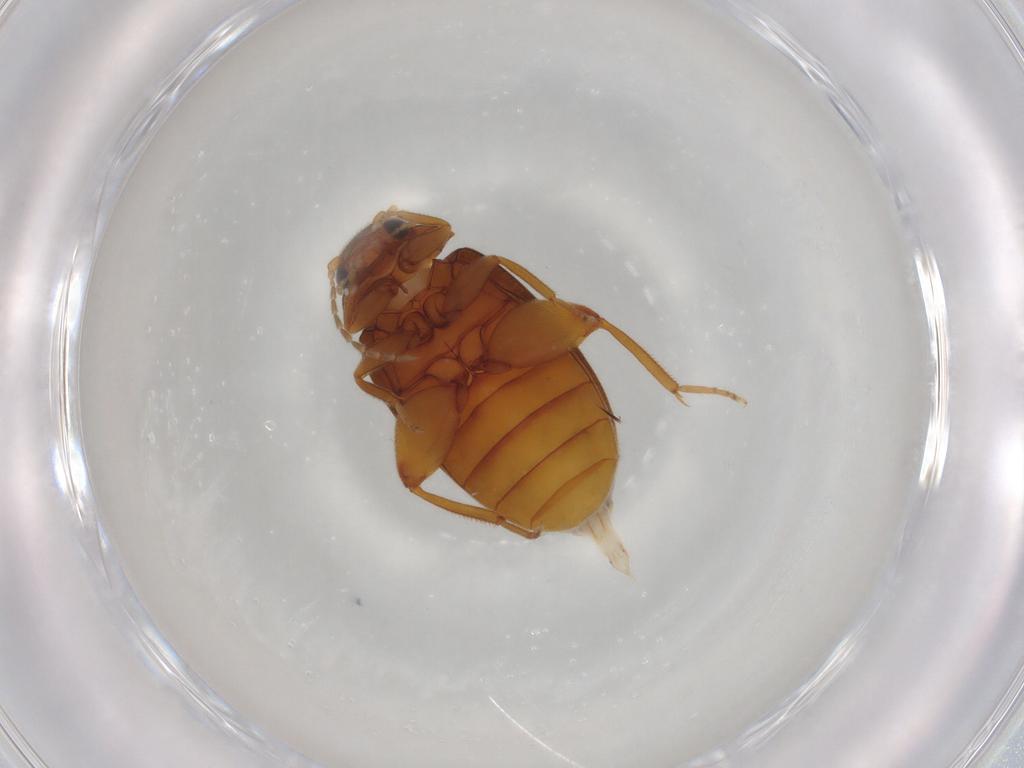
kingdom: Animalia
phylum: Arthropoda
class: Insecta
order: Coleoptera
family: Scirtidae
